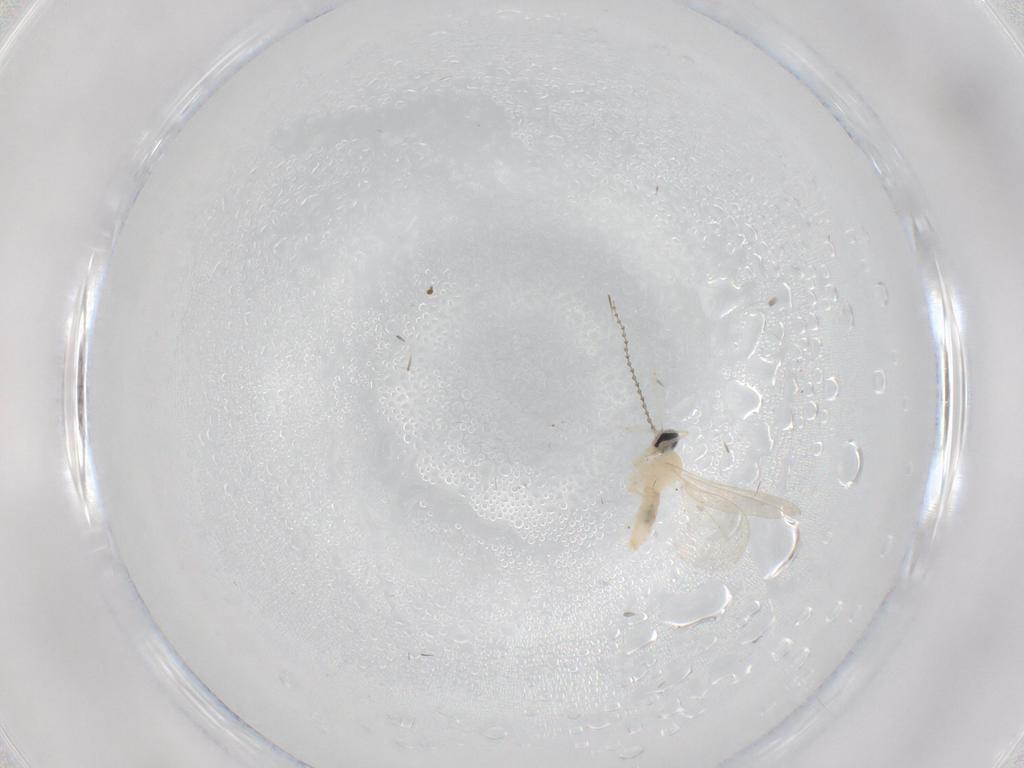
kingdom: Animalia
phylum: Arthropoda
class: Insecta
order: Diptera
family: Cecidomyiidae
